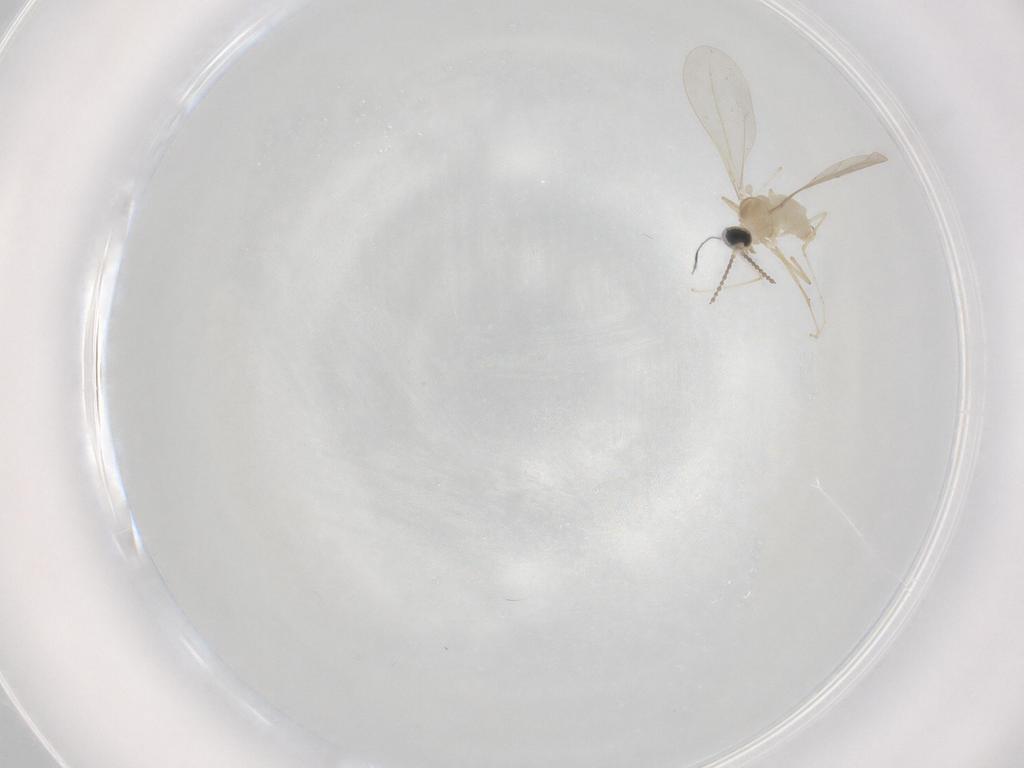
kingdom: Animalia
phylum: Arthropoda
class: Insecta
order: Diptera
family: Cecidomyiidae
